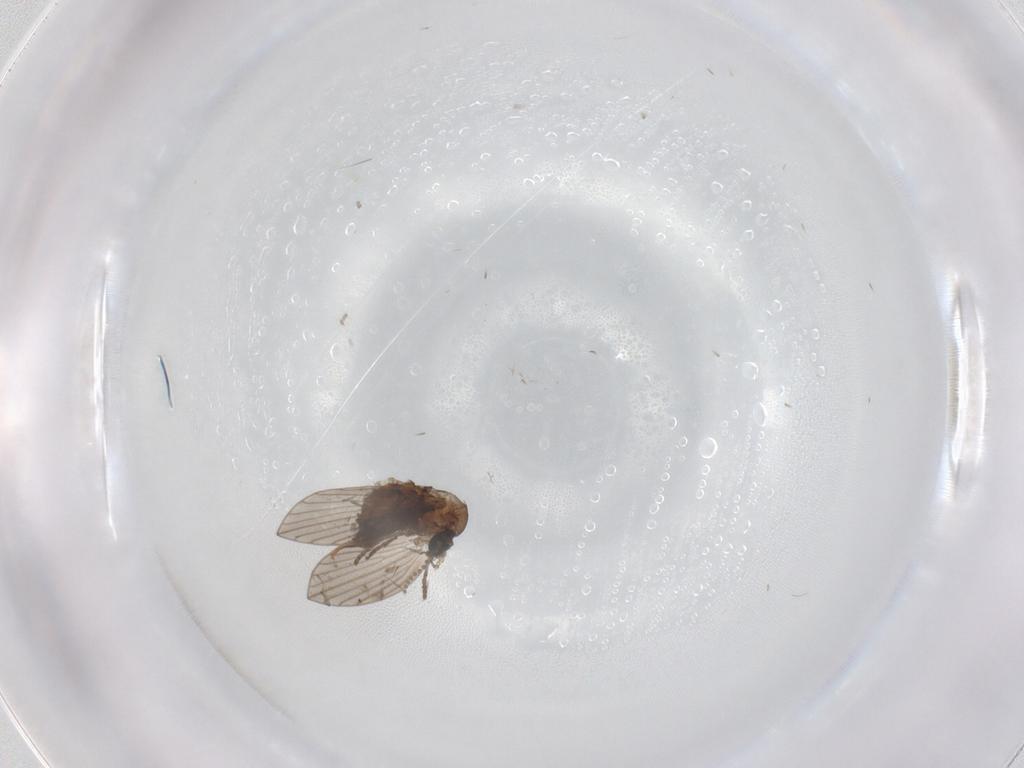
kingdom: Animalia
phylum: Arthropoda
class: Insecta
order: Diptera
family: Psychodidae
